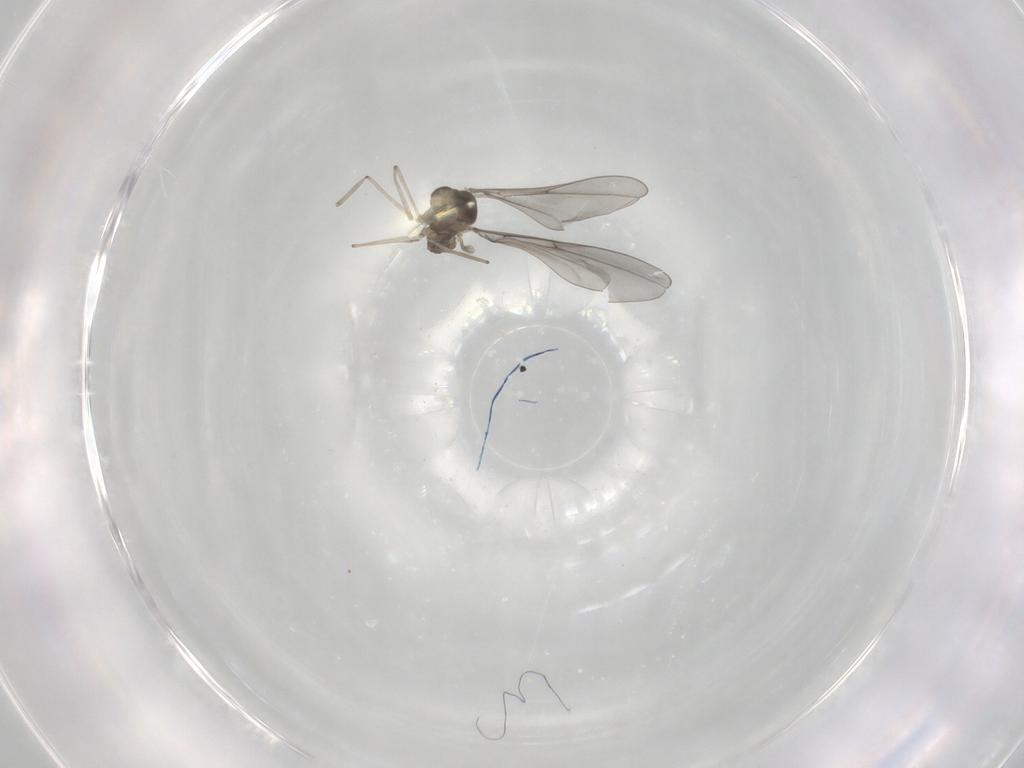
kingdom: Animalia
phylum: Arthropoda
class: Insecta
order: Diptera
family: Cecidomyiidae
